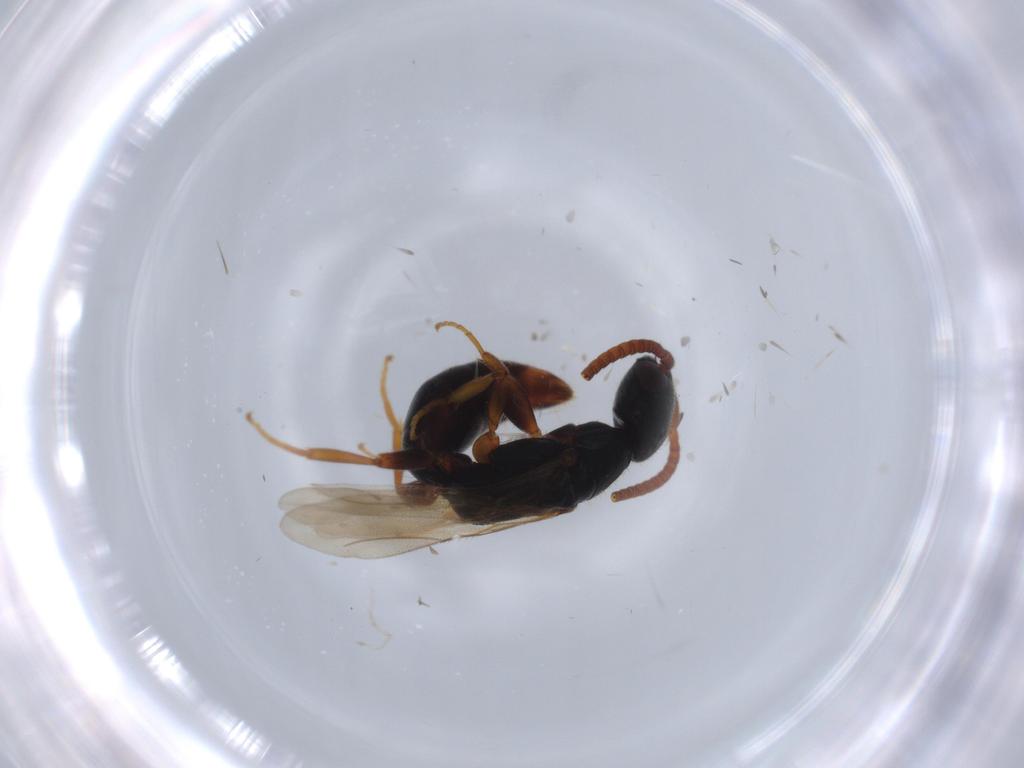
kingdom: Animalia
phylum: Arthropoda
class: Insecta
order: Hymenoptera
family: Bethylidae
